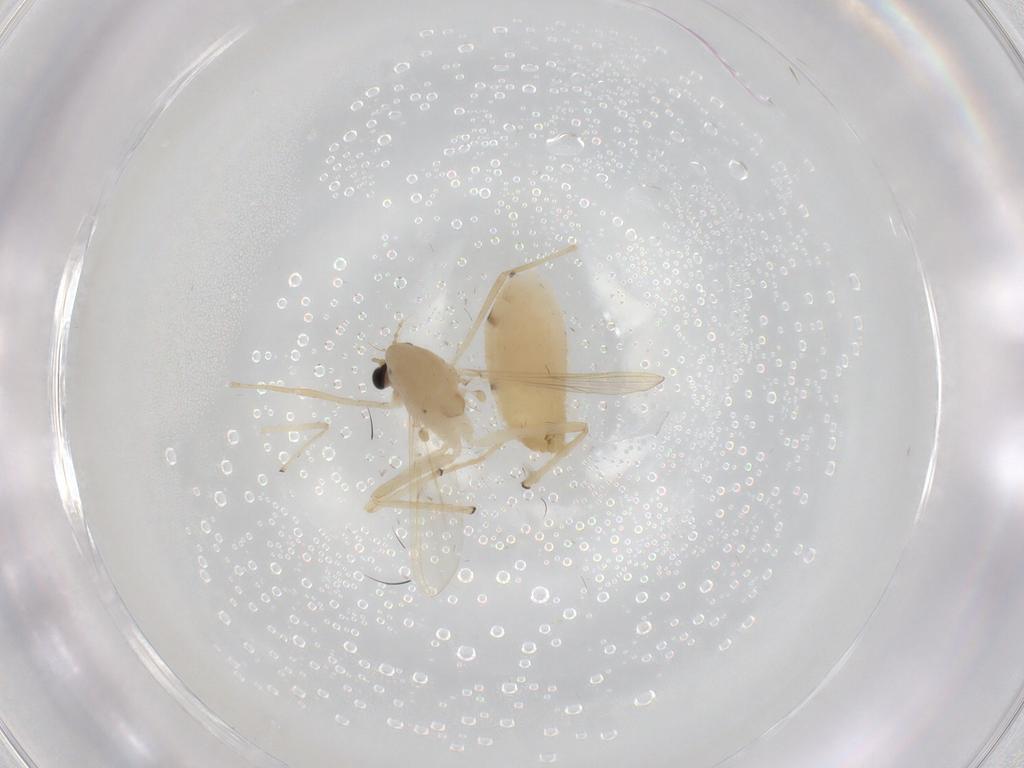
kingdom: Animalia
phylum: Arthropoda
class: Insecta
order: Diptera
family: Chironomidae
